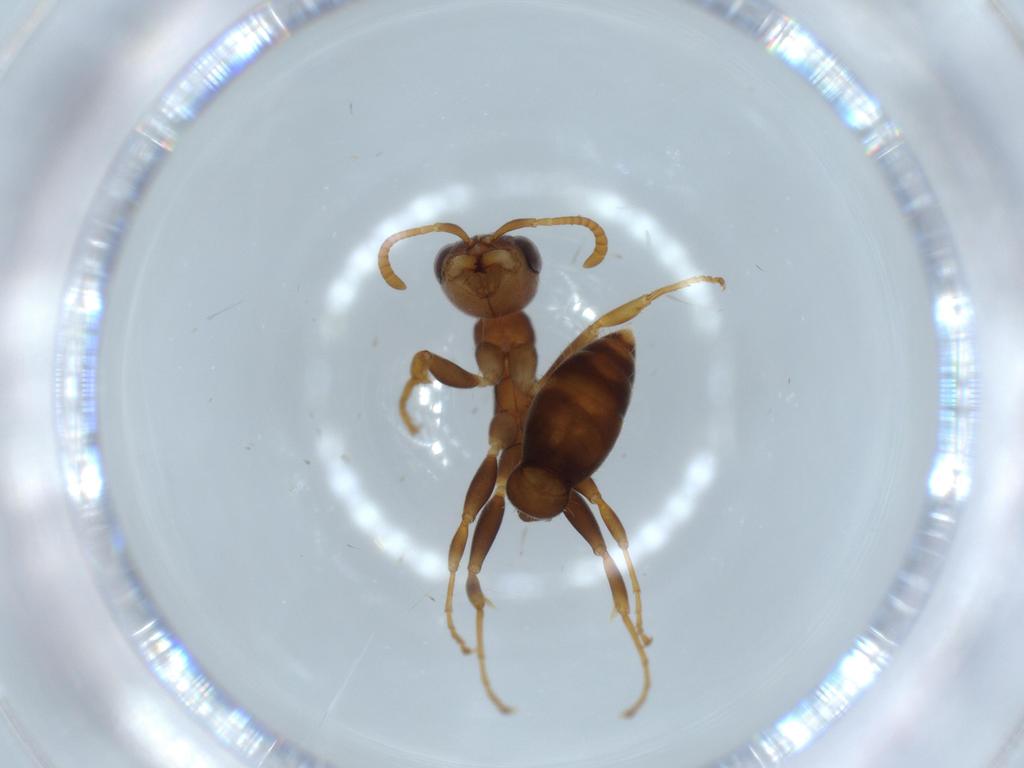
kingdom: Animalia
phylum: Arthropoda
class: Insecta
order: Hymenoptera
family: Formicidae
